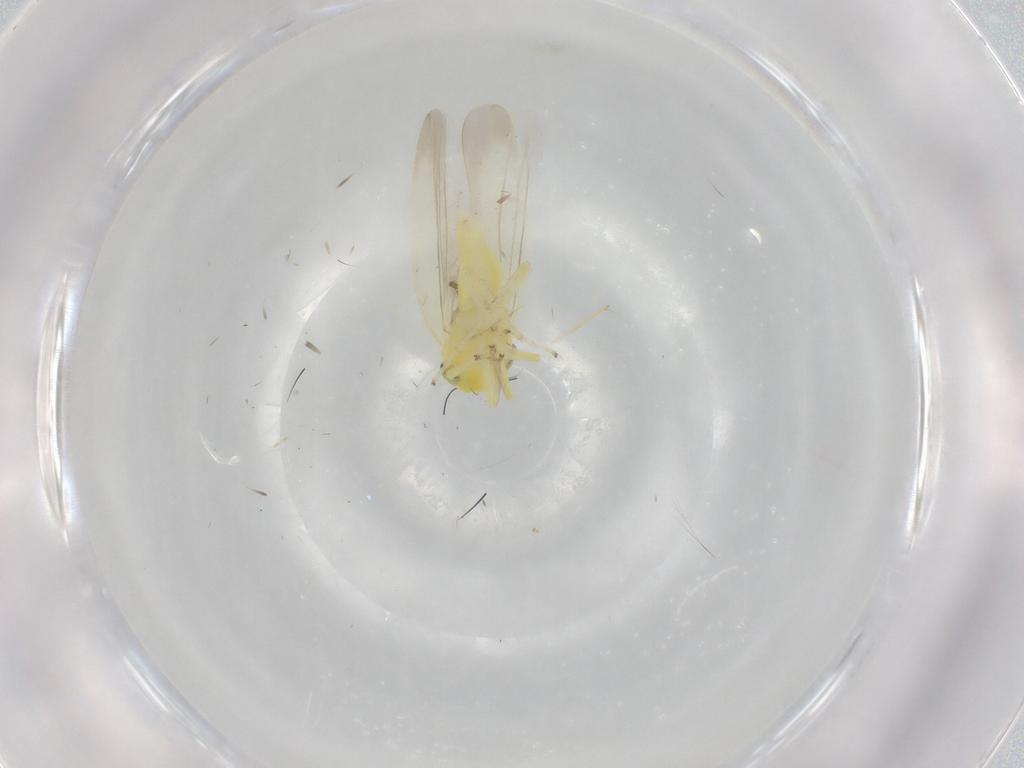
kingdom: Animalia
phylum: Arthropoda
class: Insecta
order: Hemiptera
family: Cicadellidae
